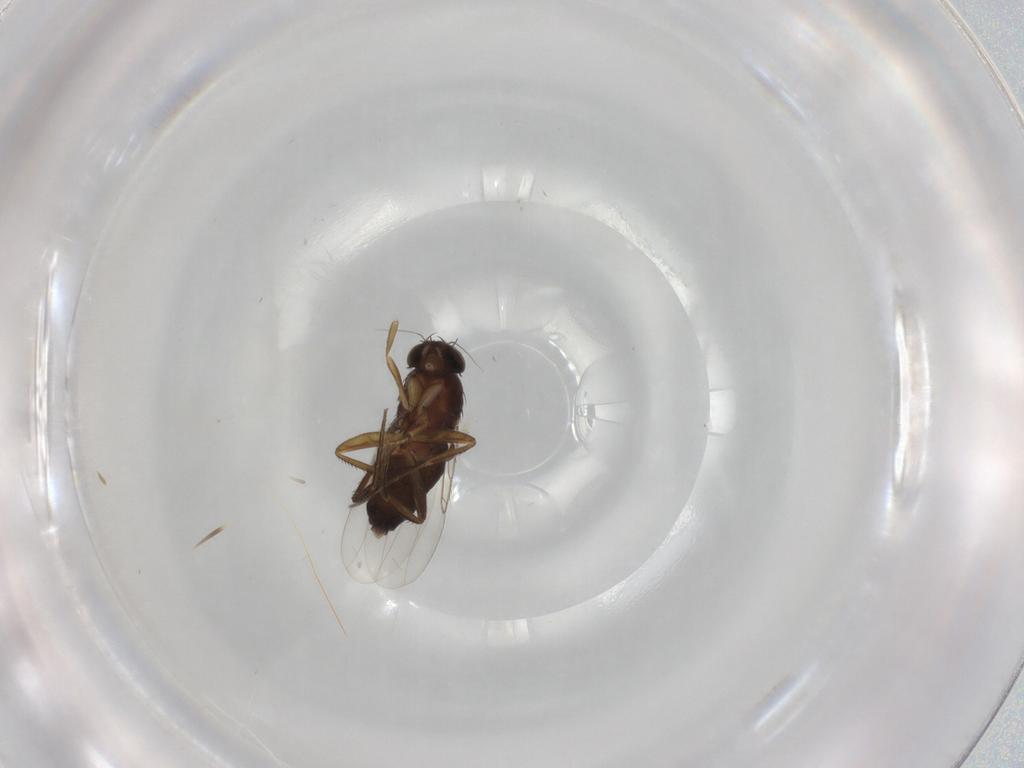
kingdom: Animalia
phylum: Arthropoda
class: Insecta
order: Diptera
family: Phoridae
